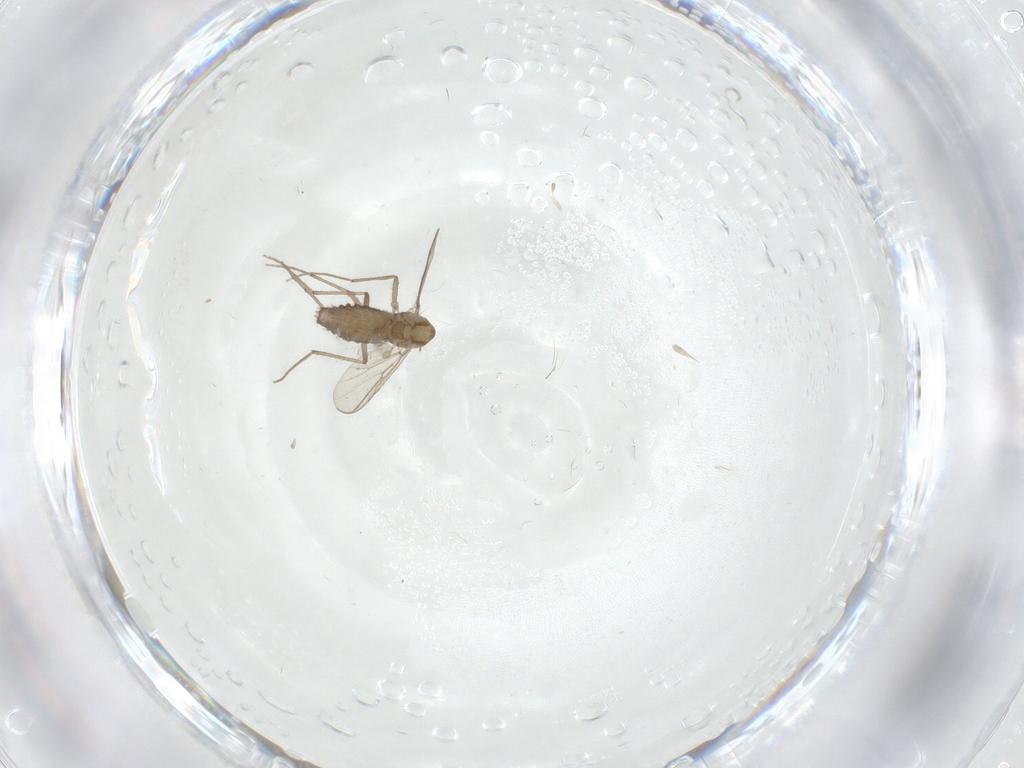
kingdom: Animalia
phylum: Arthropoda
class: Insecta
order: Diptera
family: Chironomidae
